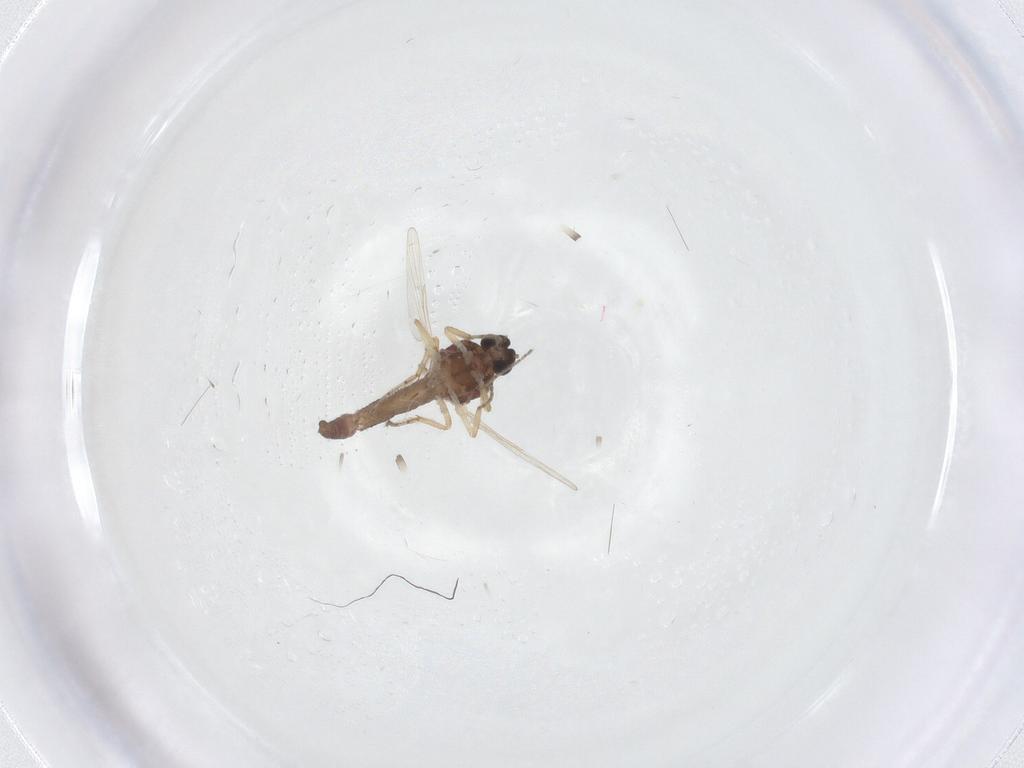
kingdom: Animalia
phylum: Arthropoda
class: Insecta
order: Diptera
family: Ceratopogonidae
